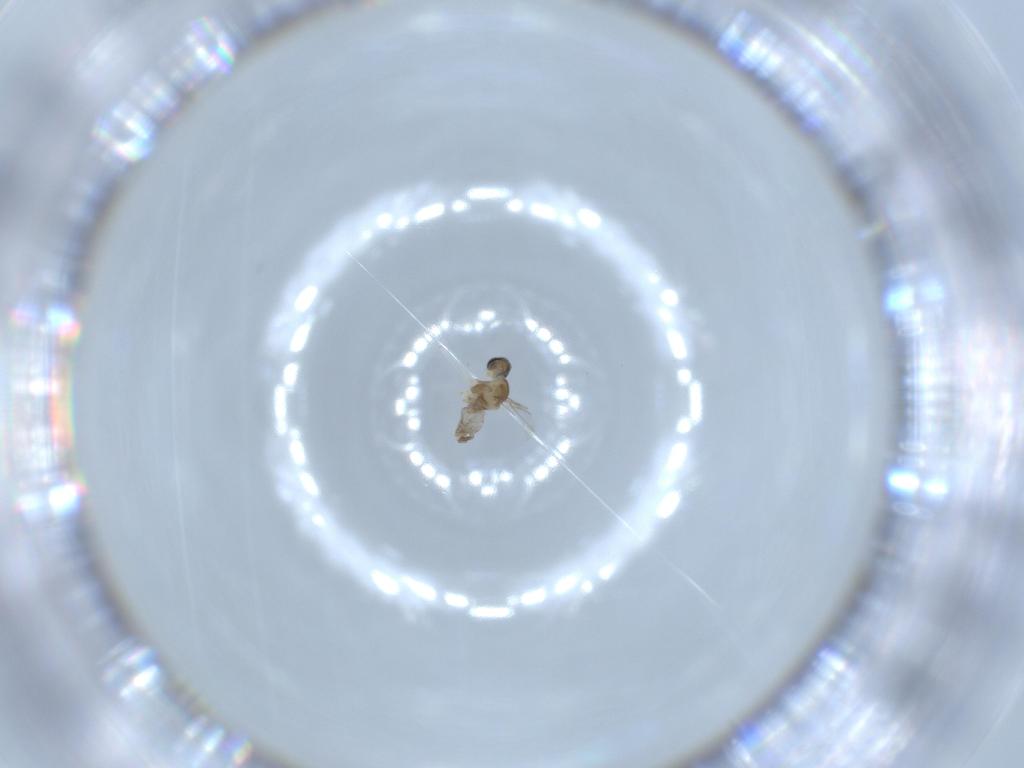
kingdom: Animalia
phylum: Arthropoda
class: Insecta
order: Diptera
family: Cecidomyiidae
